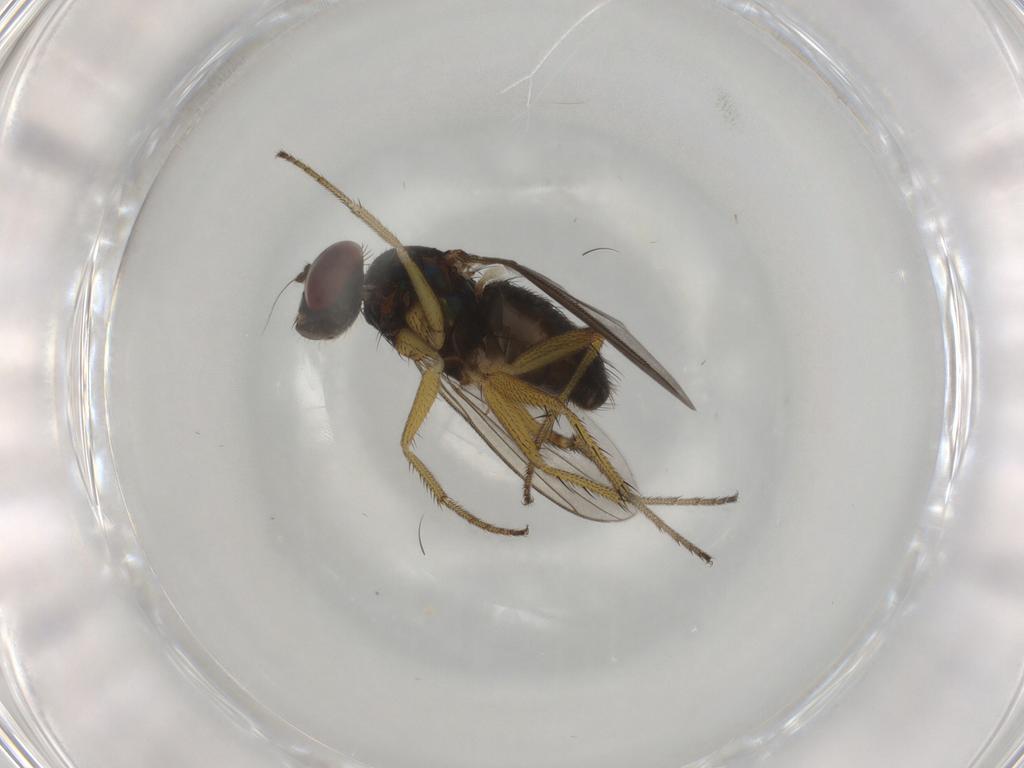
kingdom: Animalia
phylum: Arthropoda
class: Insecta
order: Diptera
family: Dolichopodidae
